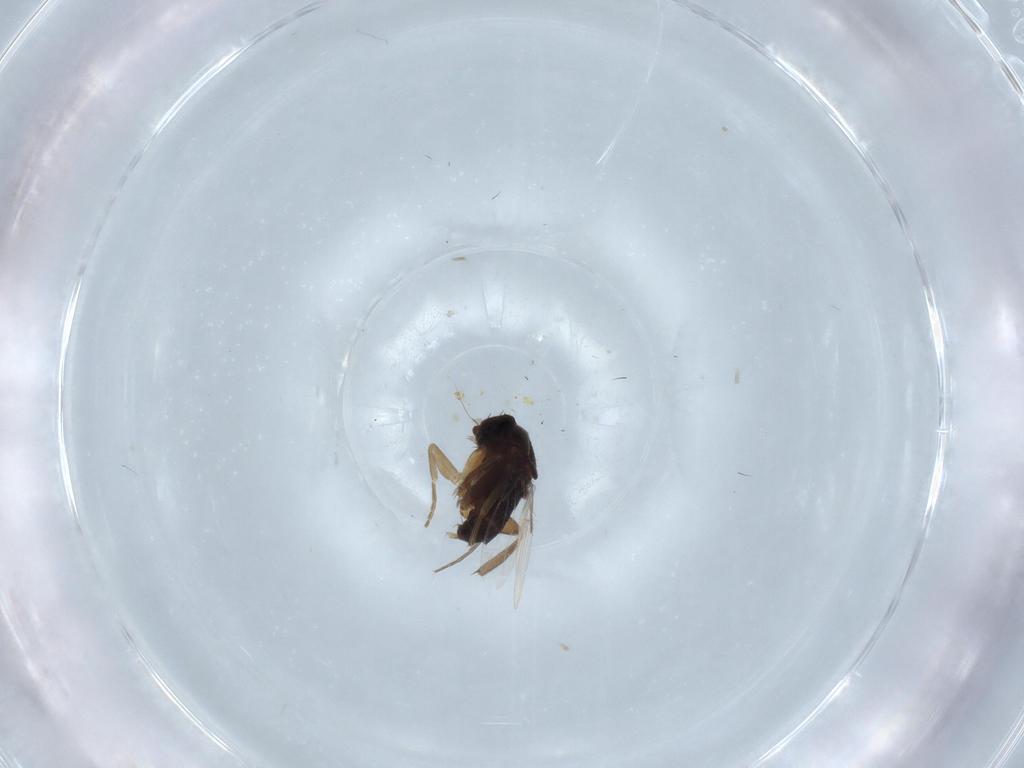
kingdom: Animalia
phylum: Arthropoda
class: Insecta
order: Diptera
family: Phoridae
